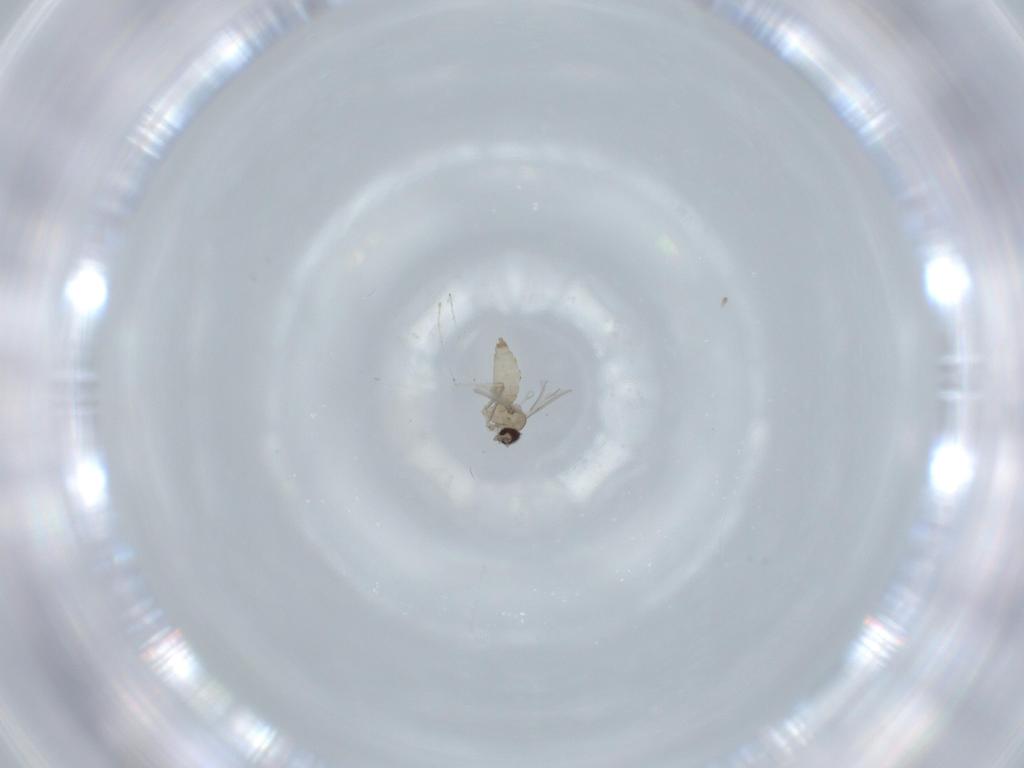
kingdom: Animalia
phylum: Arthropoda
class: Insecta
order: Diptera
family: Cecidomyiidae
